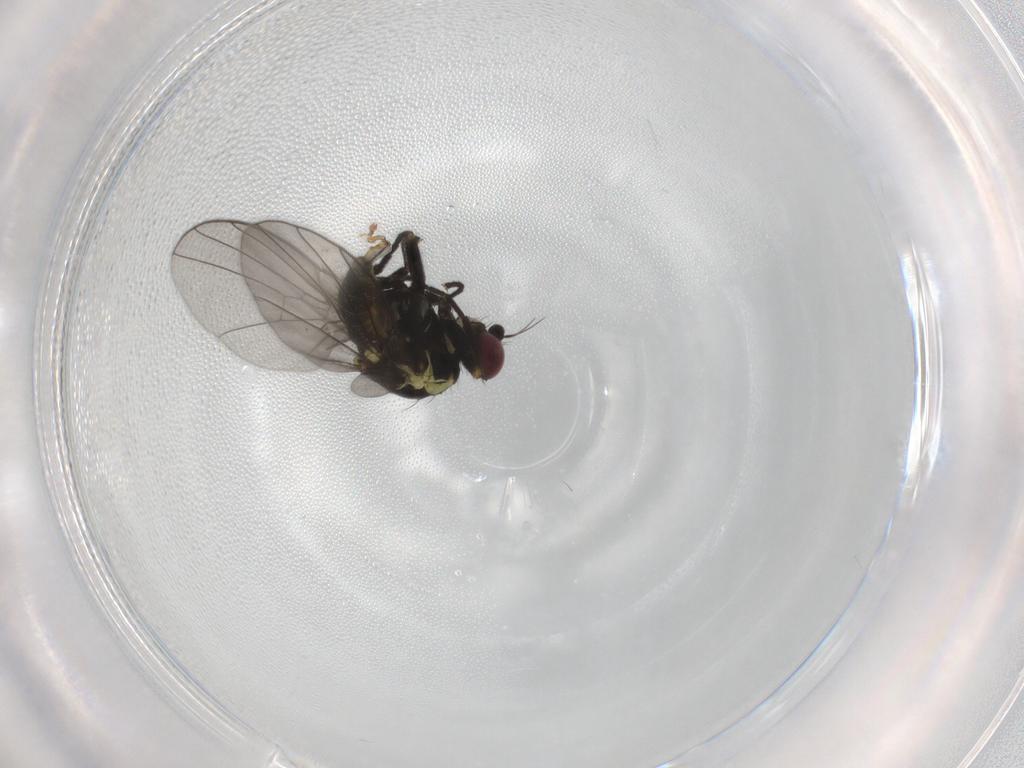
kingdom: Animalia
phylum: Arthropoda
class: Insecta
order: Diptera
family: Agromyzidae
